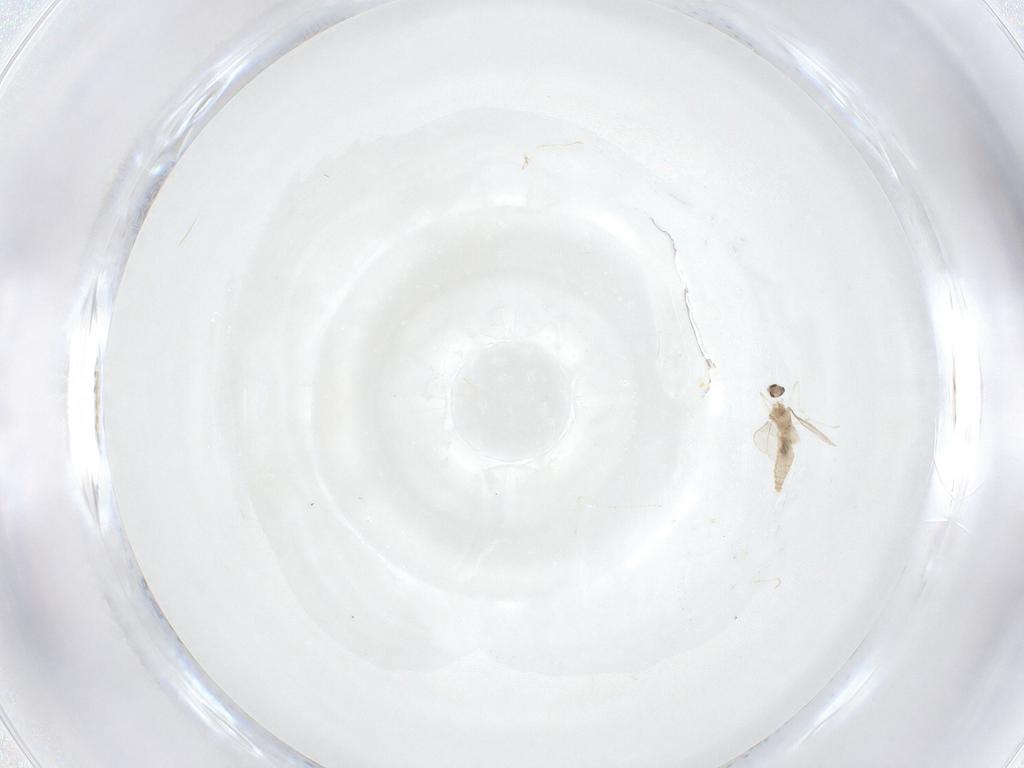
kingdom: Animalia
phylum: Arthropoda
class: Insecta
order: Diptera
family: Cecidomyiidae
